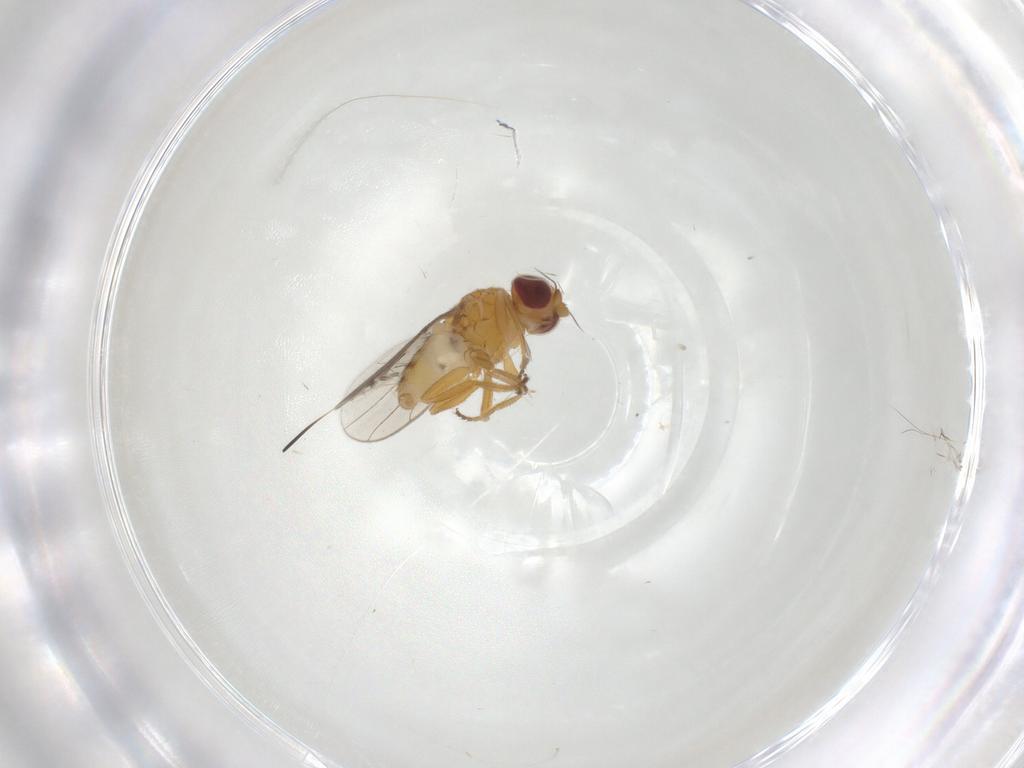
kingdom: Animalia
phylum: Arthropoda
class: Insecta
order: Diptera
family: Chloropidae
